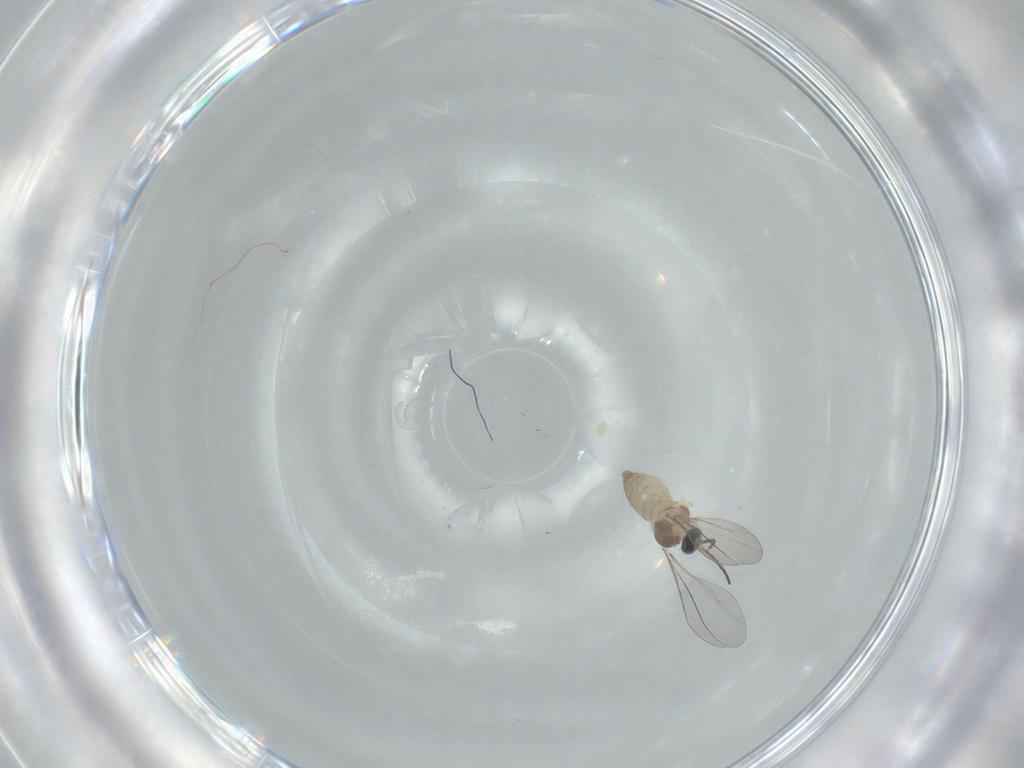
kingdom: Animalia
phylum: Arthropoda
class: Insecta
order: Diptera
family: Cecidomyiidae
